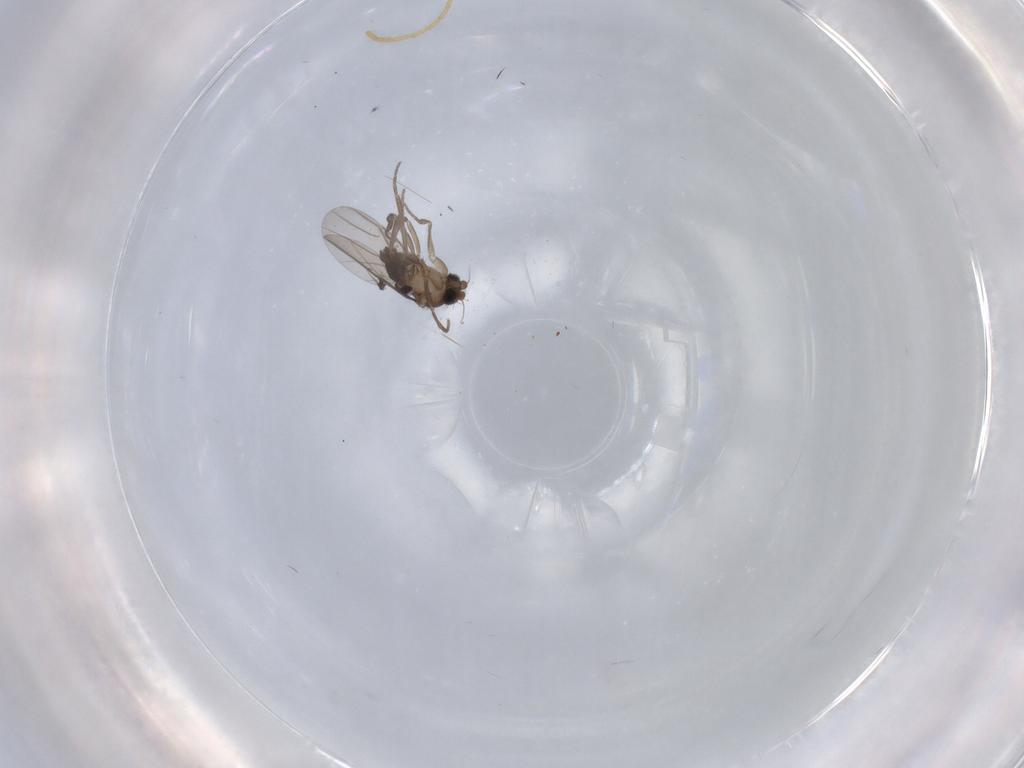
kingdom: Animalia
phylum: Arthropoda
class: Insecta
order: Diptera
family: Phoridae
